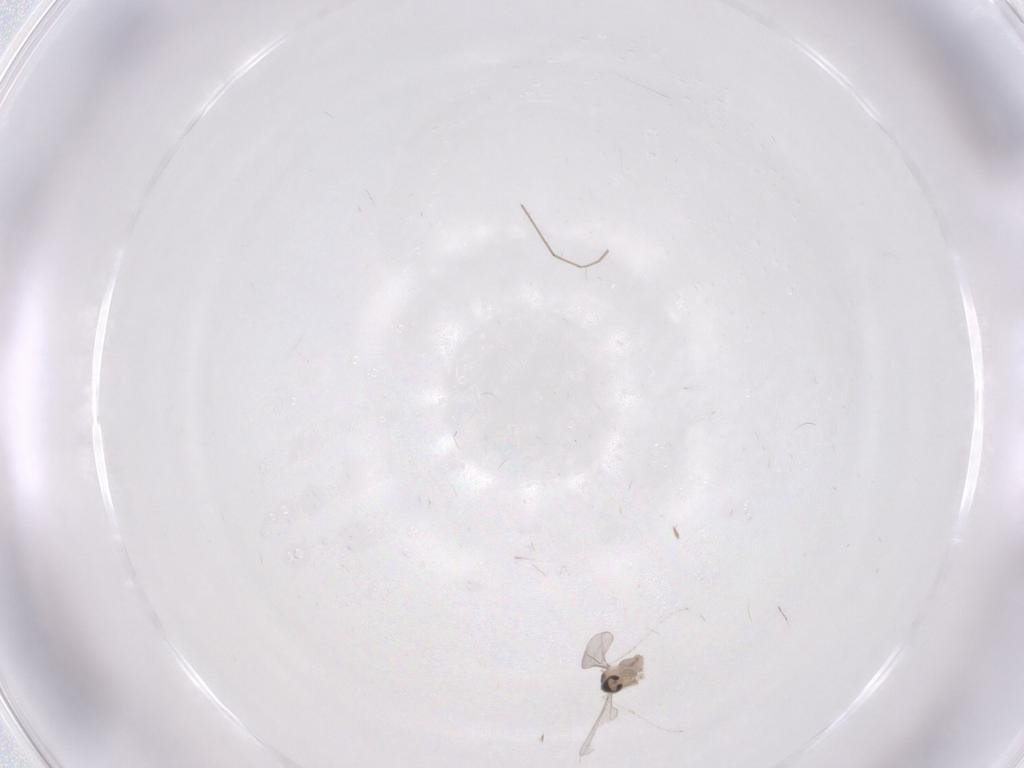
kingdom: Animalia
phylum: Arthropoda
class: Insecta
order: Diptera
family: Cecidomyiidae
